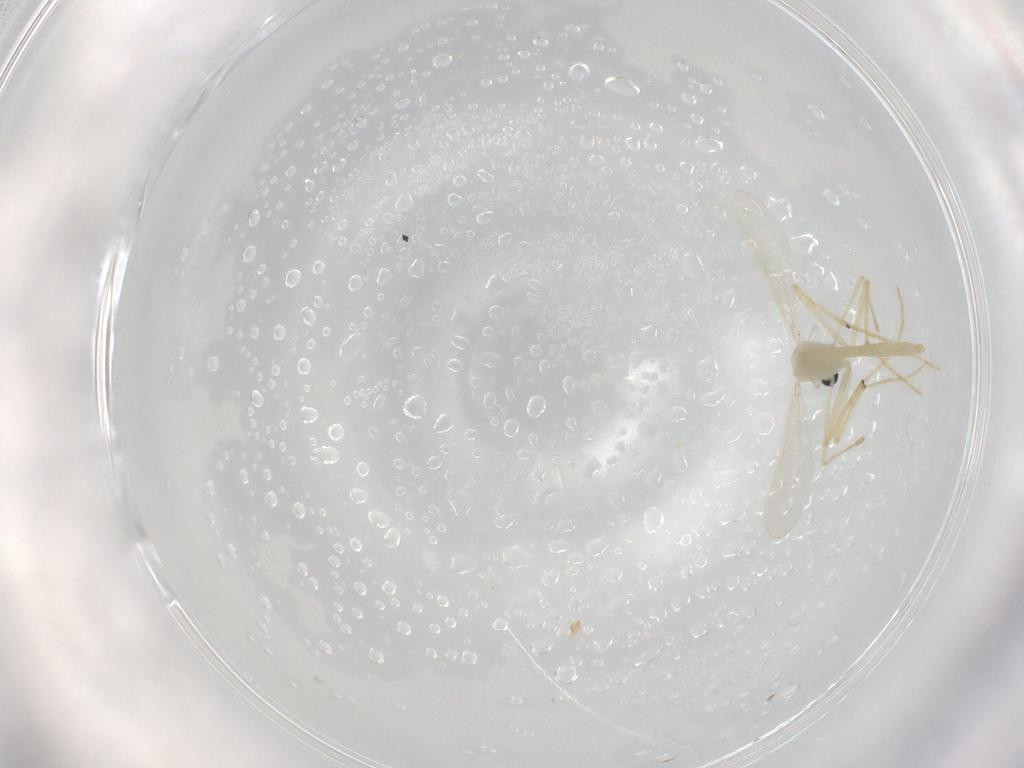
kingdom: Animalia
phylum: Arthropoda
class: Insecta
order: Diptera
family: Chironomidae
